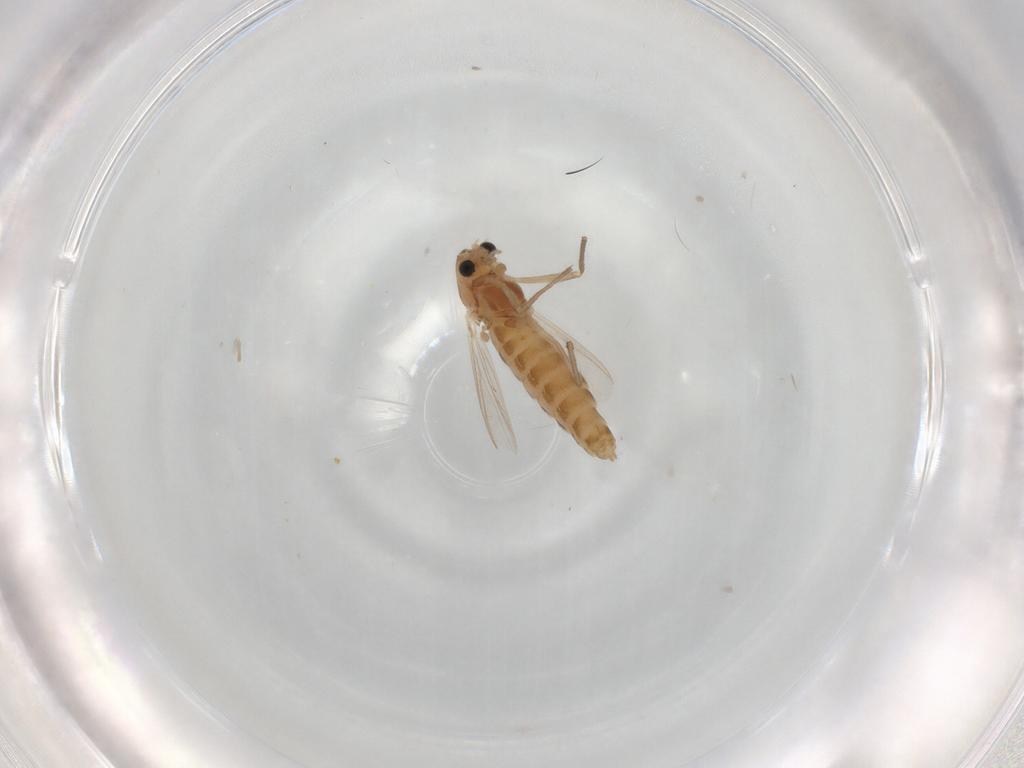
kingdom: Animalia
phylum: Arthropoda
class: Insecta
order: Diptera
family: Chironomidae
